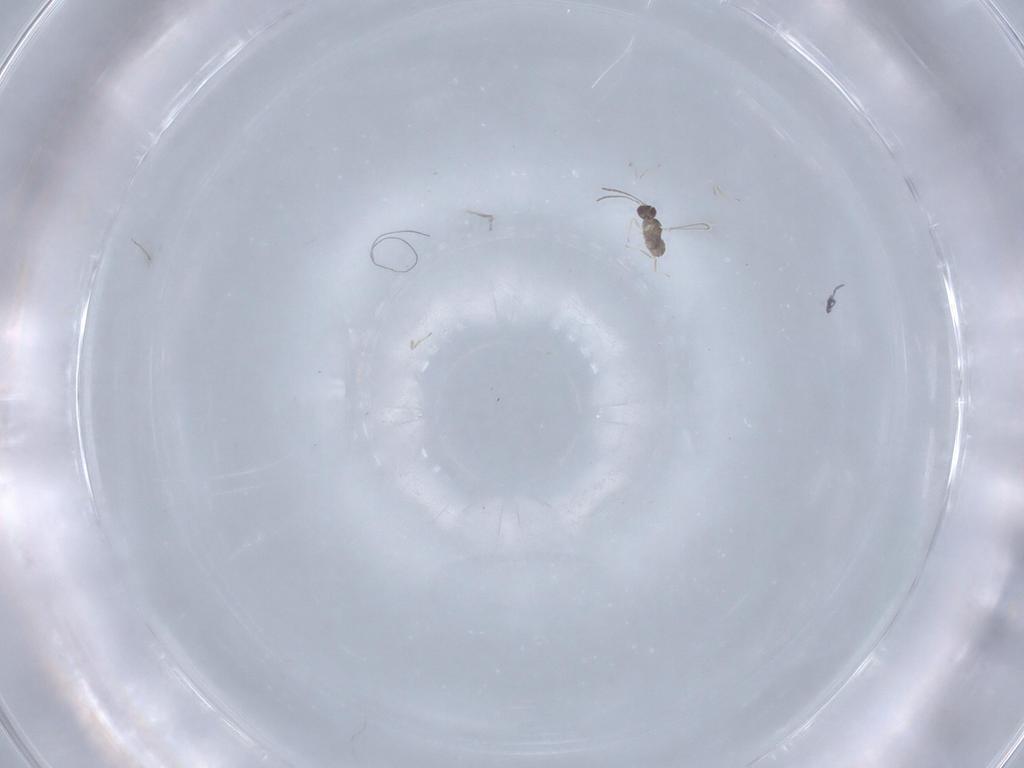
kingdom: Animalia
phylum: Arthropoda
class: Insecta
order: Hymenoptera
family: Mymaridae
